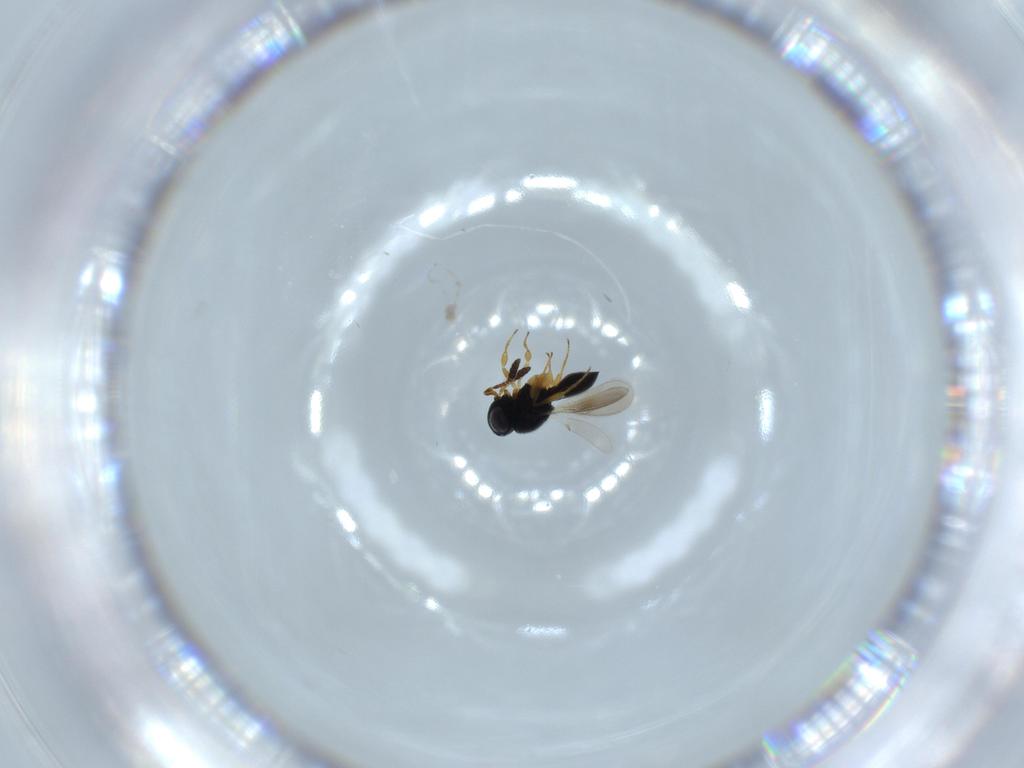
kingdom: Animalia
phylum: Arthropoda
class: Insecta
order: Hymenoptera
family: Scelionidae
